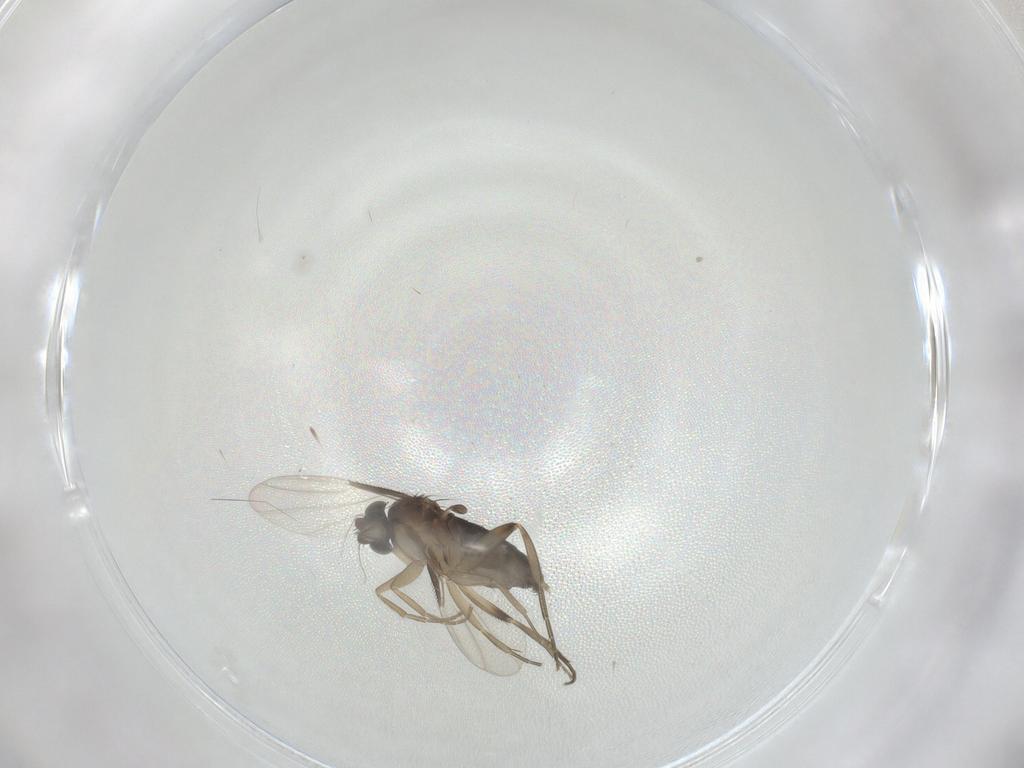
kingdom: Animalia
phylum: Arthropoda
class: Insecta
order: Diptera
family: Phoridae
